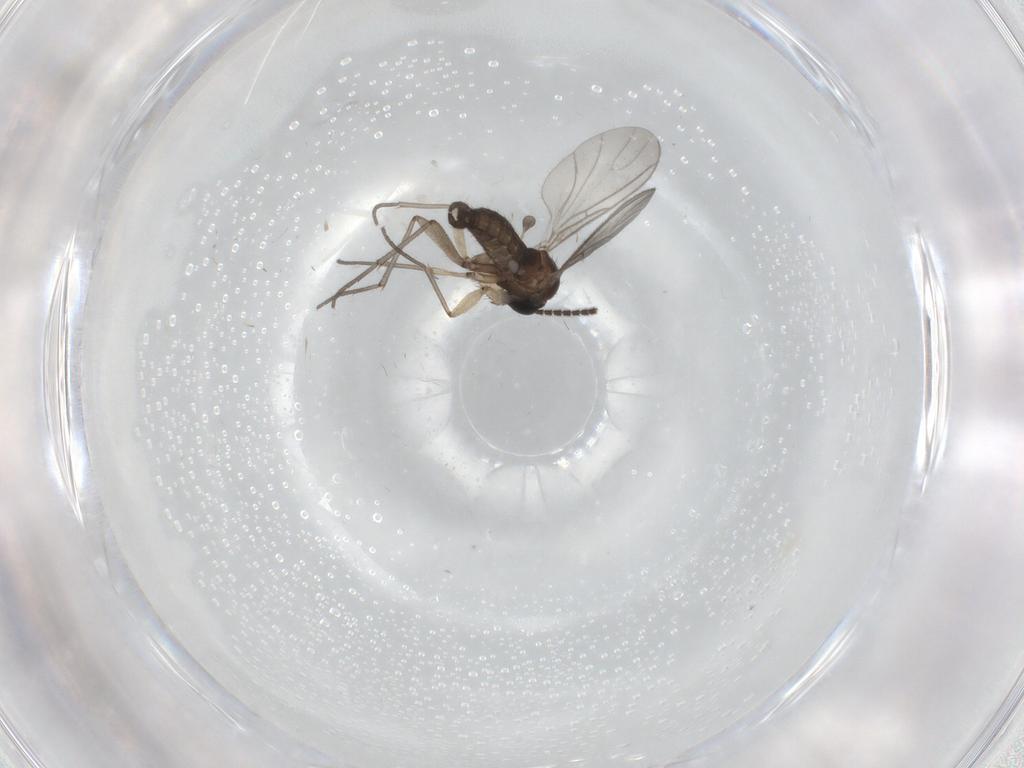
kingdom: Animalia
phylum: Arthropoda
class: Insecta
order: Diptera
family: Sciaridae
